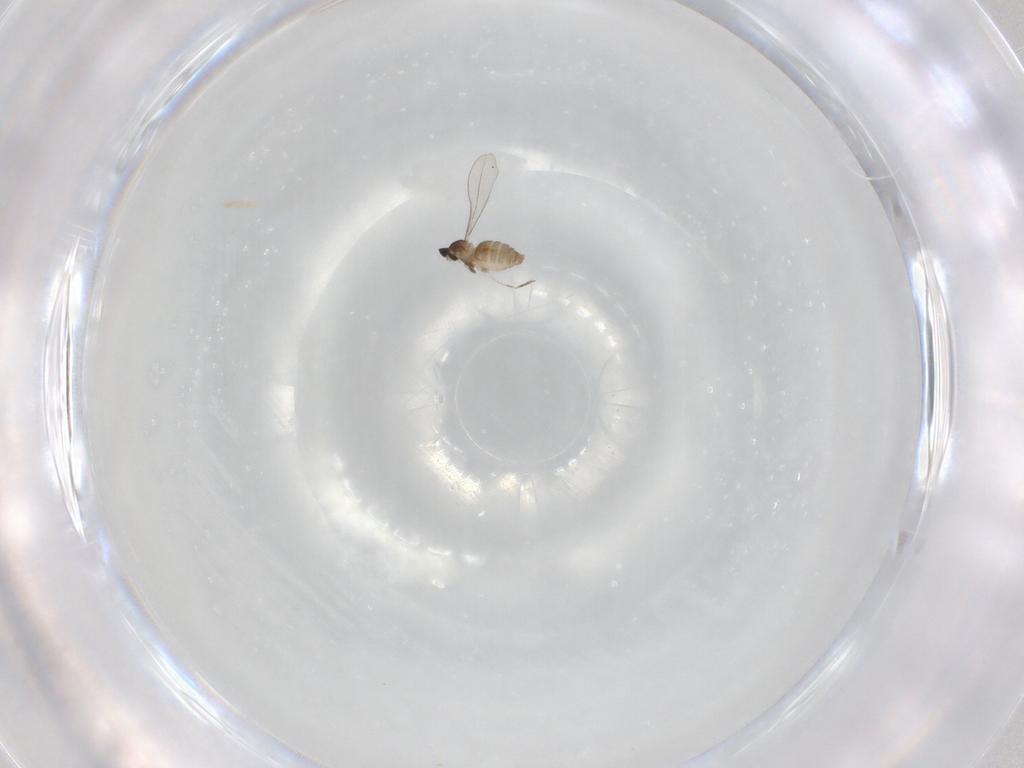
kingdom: Animalia
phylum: Arthropoda
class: Insecta
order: Diptera
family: Cecidomyiidae
